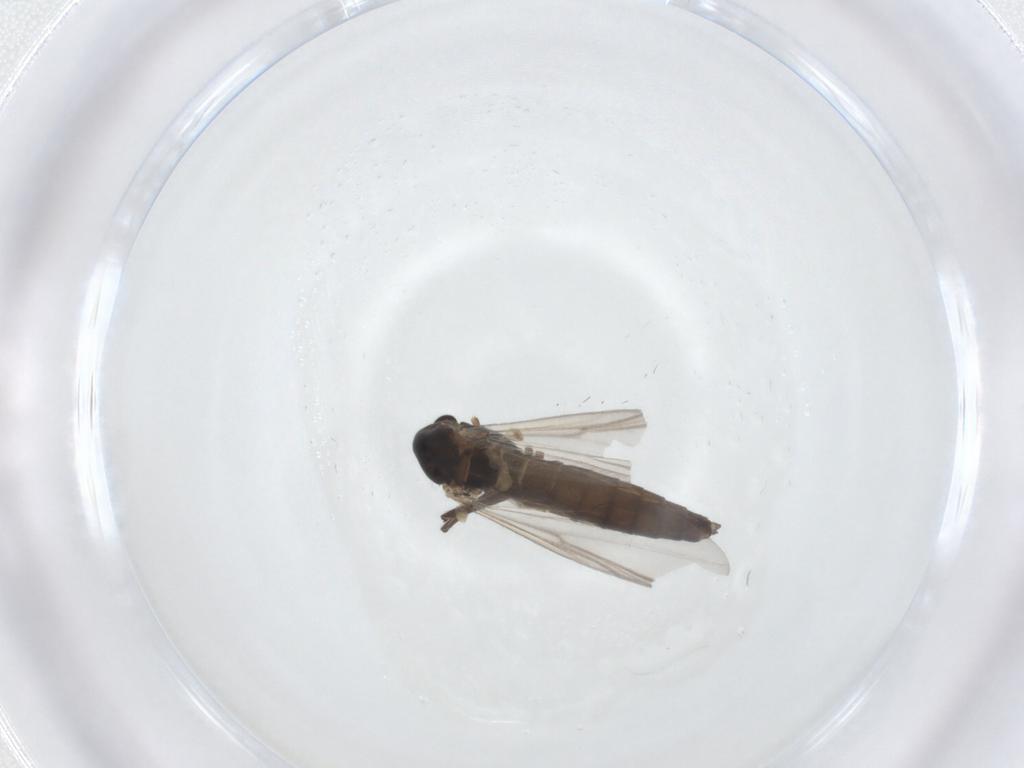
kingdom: Animalia
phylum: Arthropoda
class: Insecta
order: Diptera
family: Chironomidae
